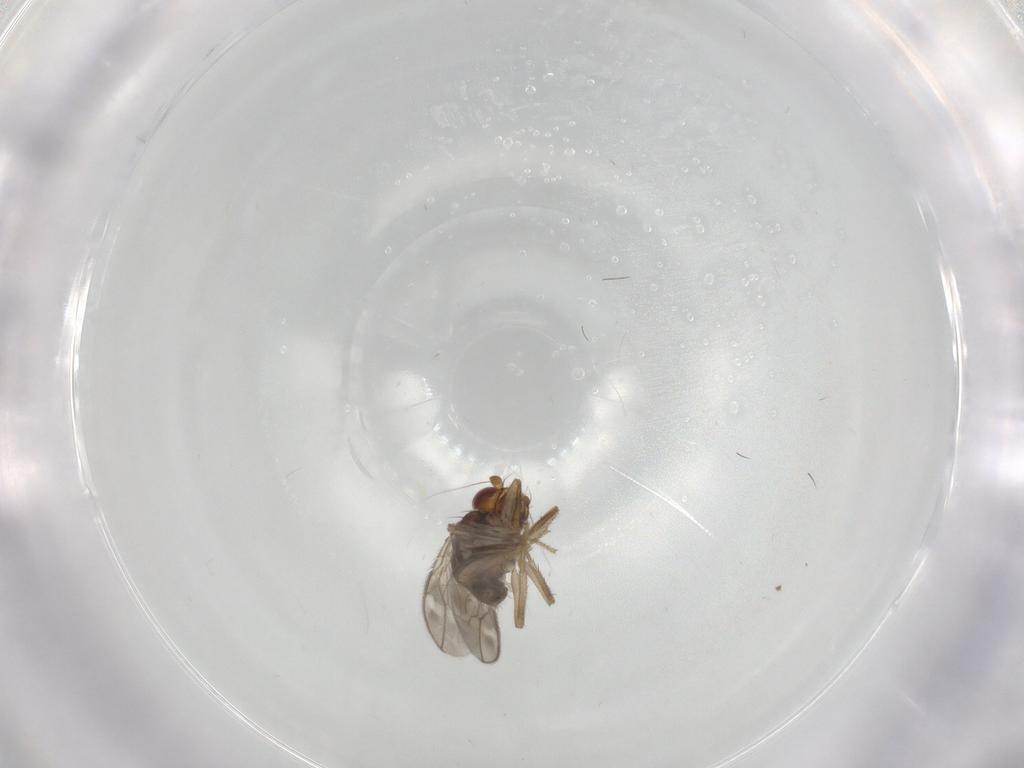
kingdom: Animalia
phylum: Arthropoda
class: Insecta
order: Diptera
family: Sphaeroceridae
